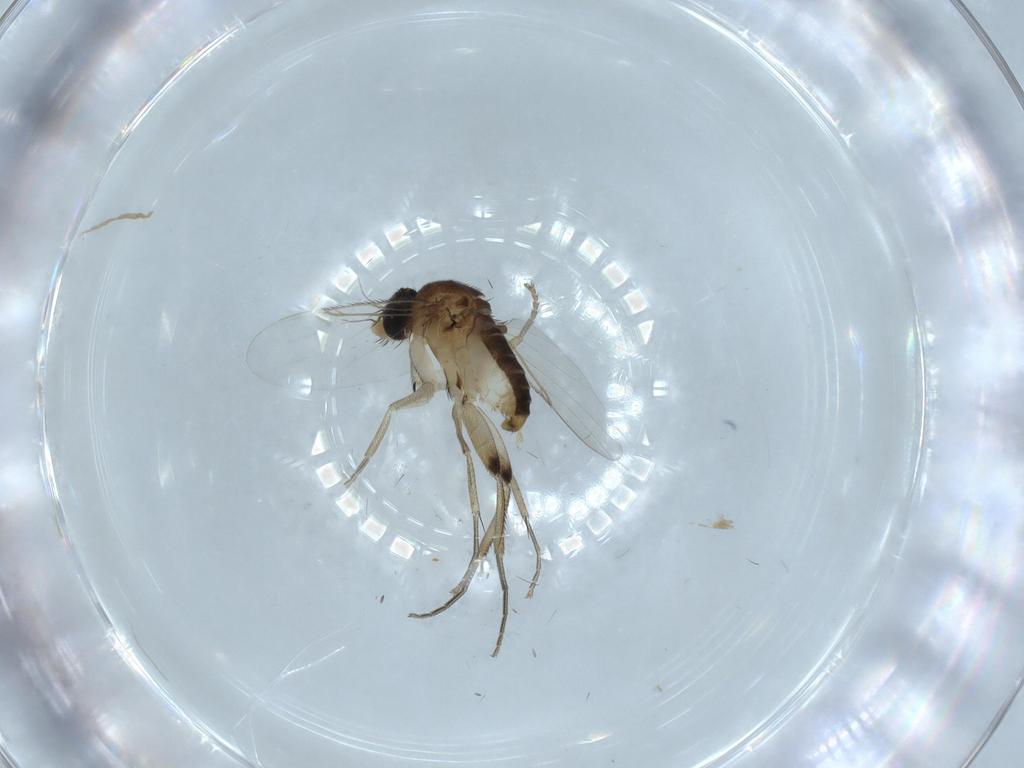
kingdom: Animalia
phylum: Arthropoda
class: Insecta
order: Diptera
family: Phoridae
